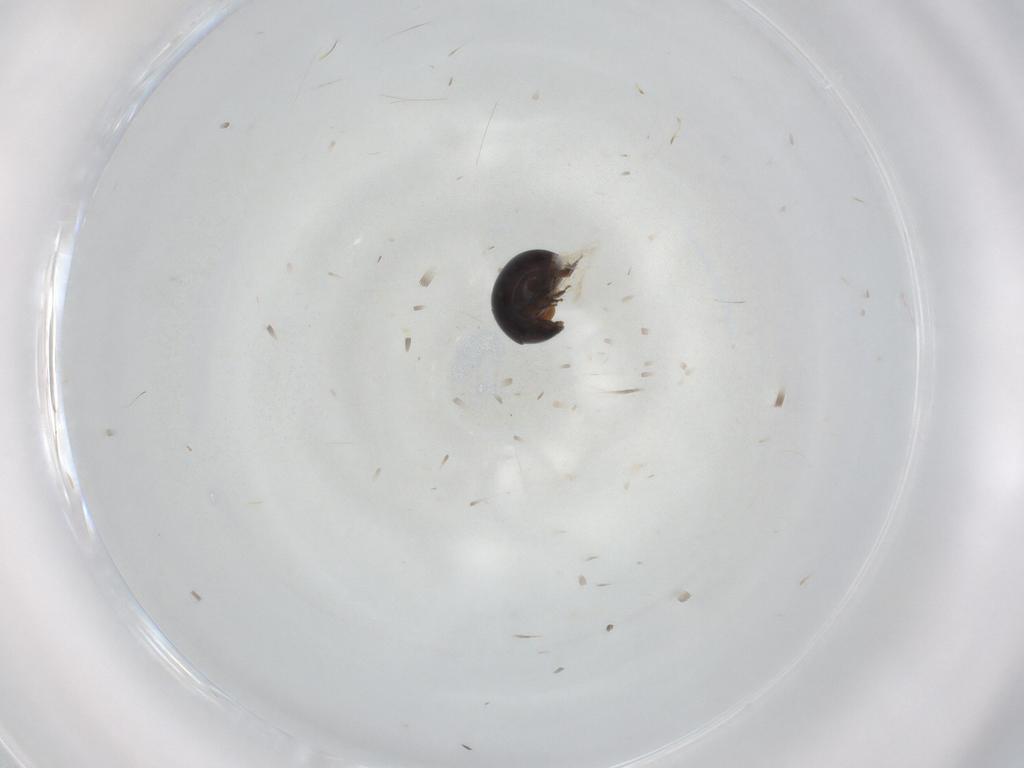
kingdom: Animalia
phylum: Arthropoda
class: Insecta
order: Coleoptera
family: Cybocephalidae
